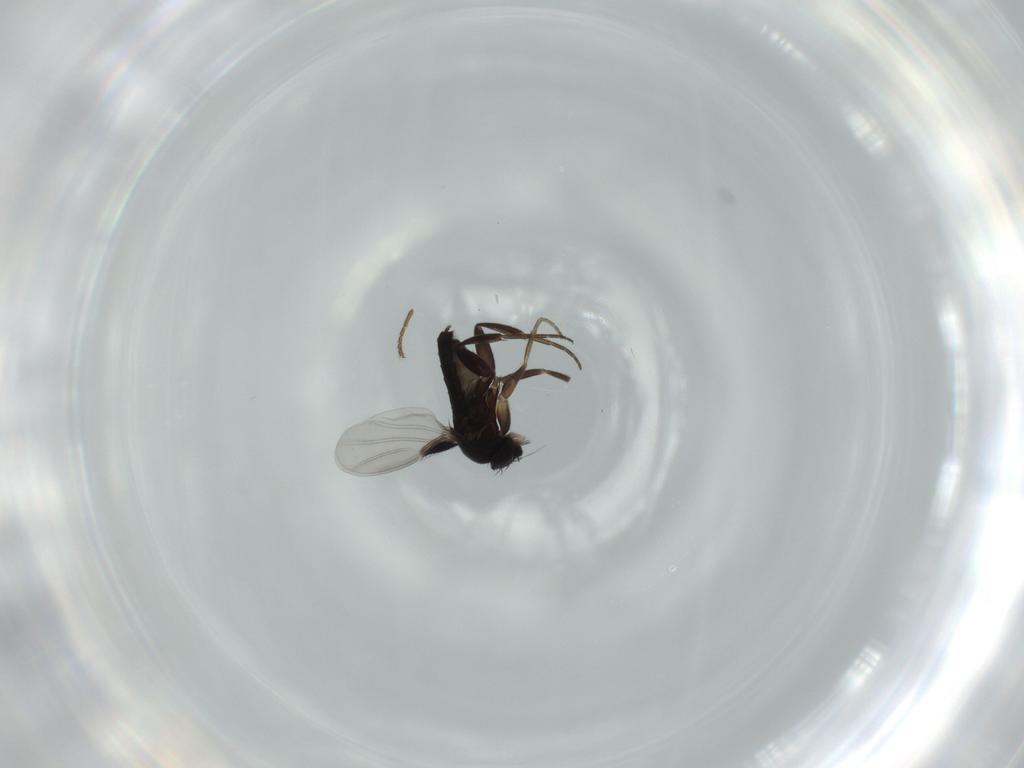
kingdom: Animalia
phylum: Arthropoda
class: Insecta
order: Diptera
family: Phoridae
